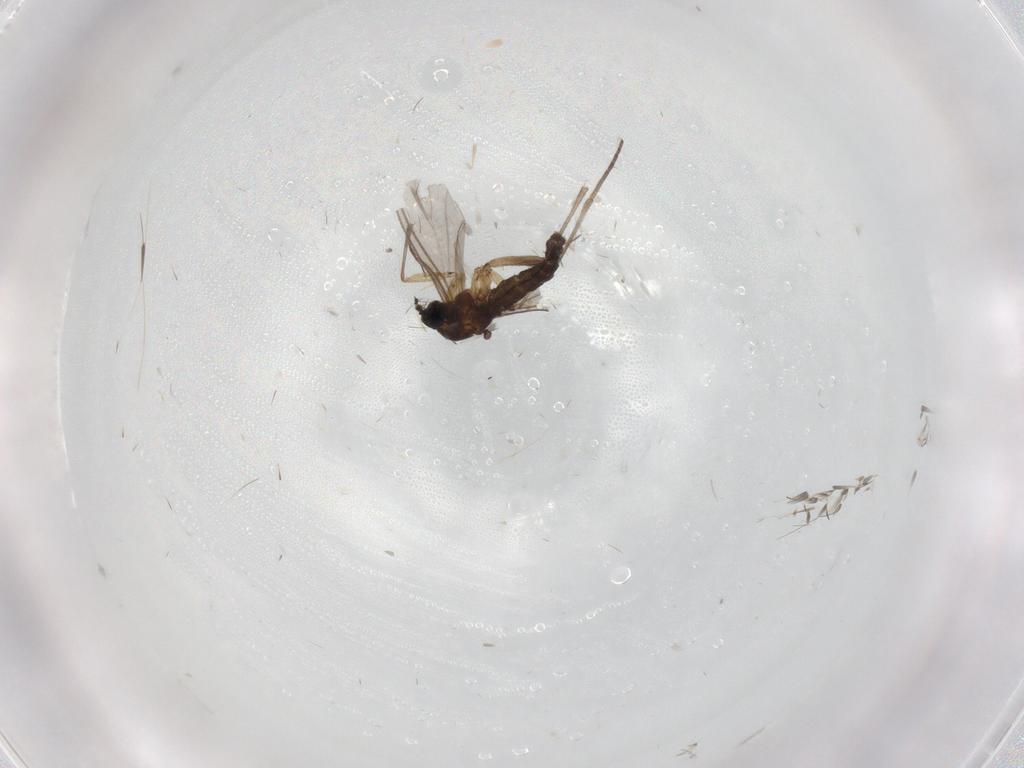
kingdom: Animalia
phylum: Arthropoda
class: Insecta
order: Diptera
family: Sciaridae
